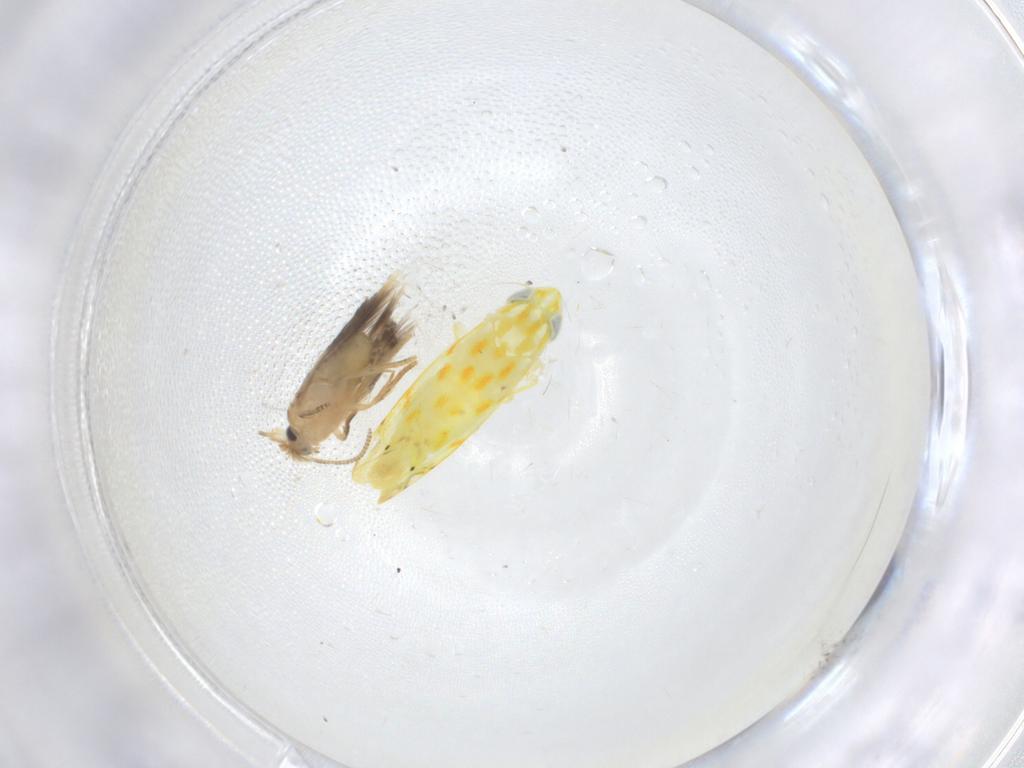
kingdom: Animalia
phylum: Arthropoda
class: Insecta
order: Hemiptera
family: Cicadellidae
